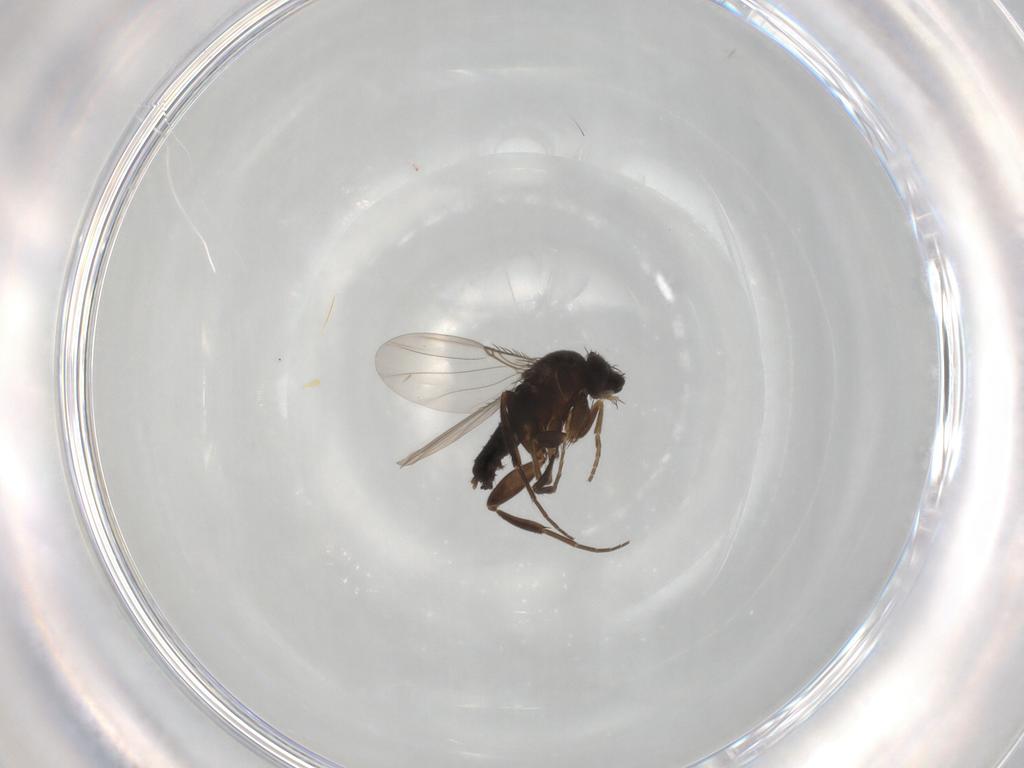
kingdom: Animalia
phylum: Arthropoda
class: Insecta
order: Diptera
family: Phoridae
